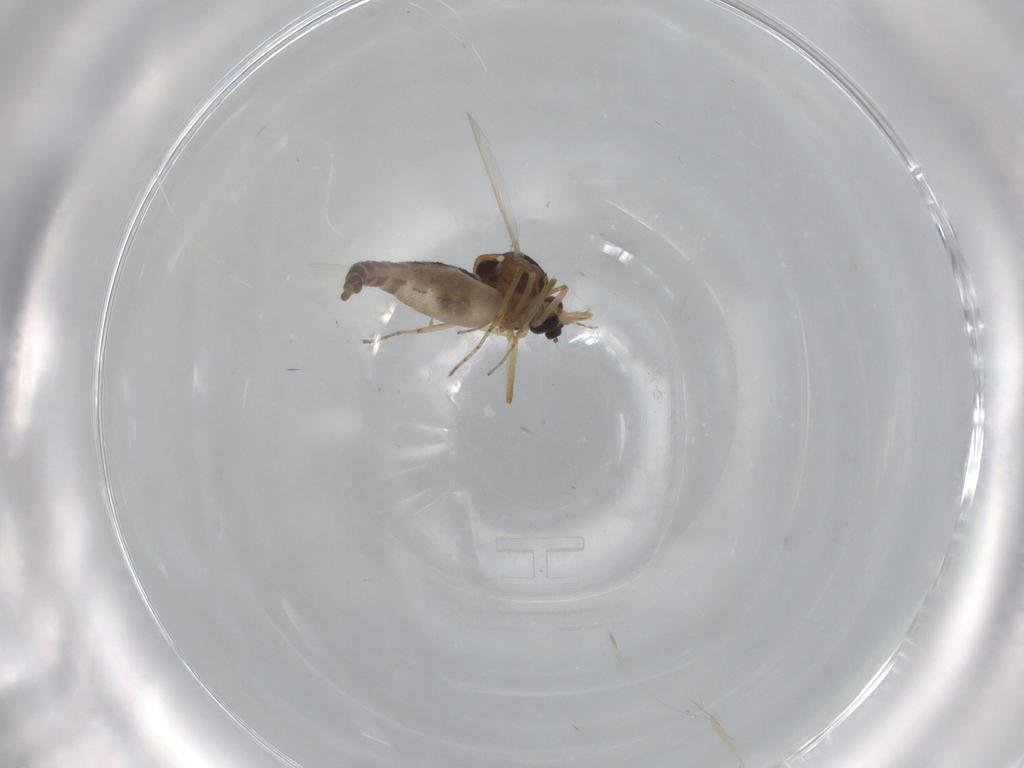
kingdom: Animalia
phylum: Arthropoda
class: Insecta
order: Diptera
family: Ceratopogonidae
